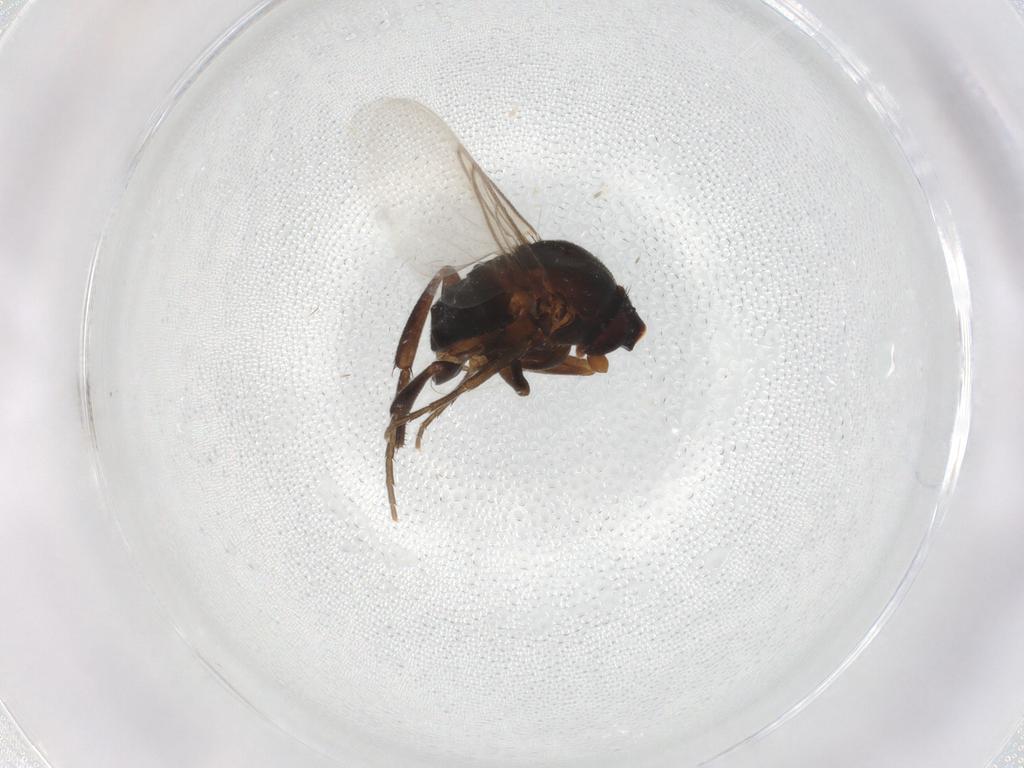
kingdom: Animalia
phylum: Arthropoda
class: Insecta
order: Diptera
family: Phoridae
